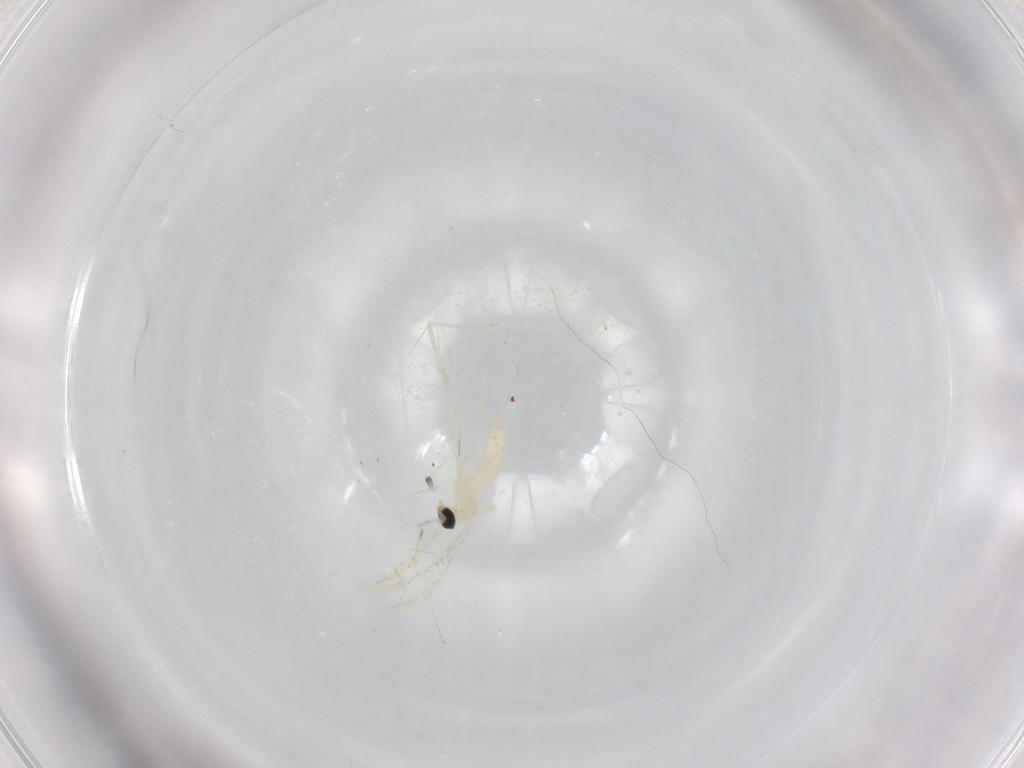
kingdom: Animalia
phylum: Arthropoda
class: Insecta
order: Diptera
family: Cecidomyiidae
